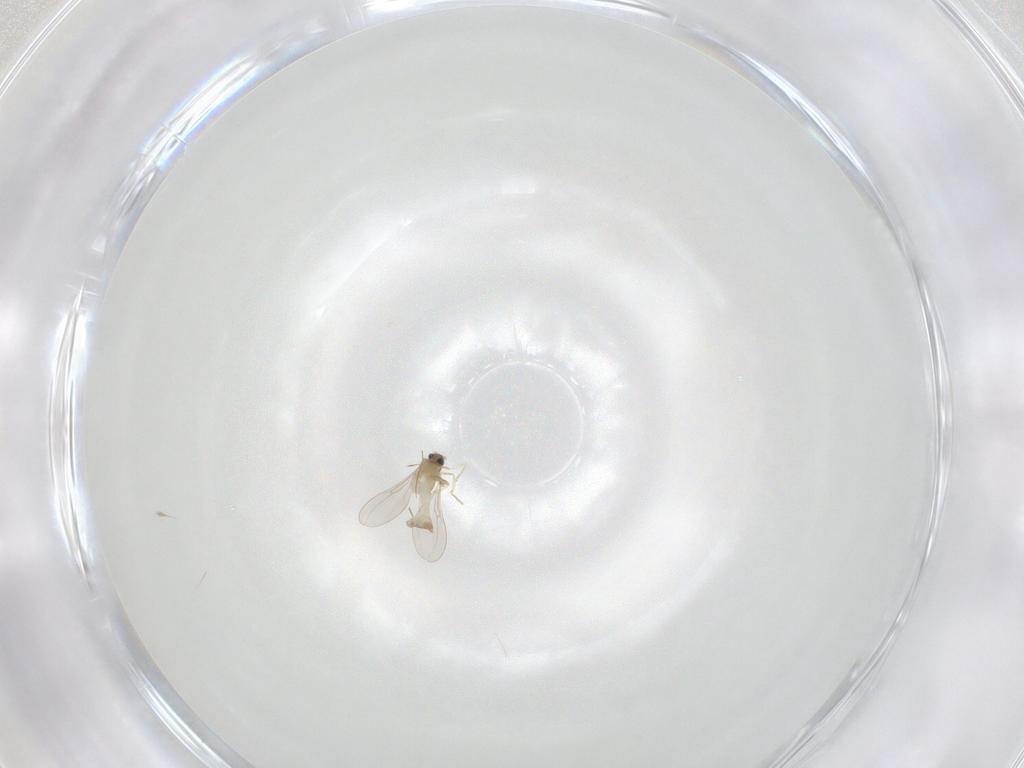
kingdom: Animalia
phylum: Arthropoda
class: Insecta
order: Diptera
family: Cecidomyiidae
